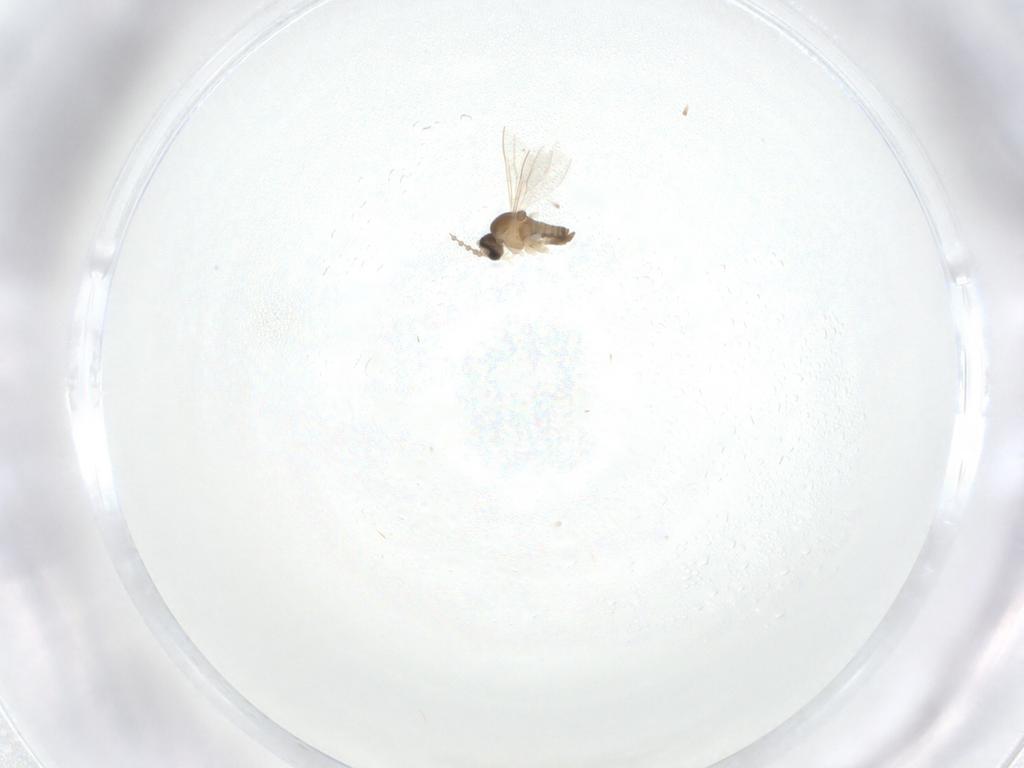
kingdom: Animalia
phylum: Arthropoda
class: Insecta
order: Diptera
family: Cecidomyiidae
